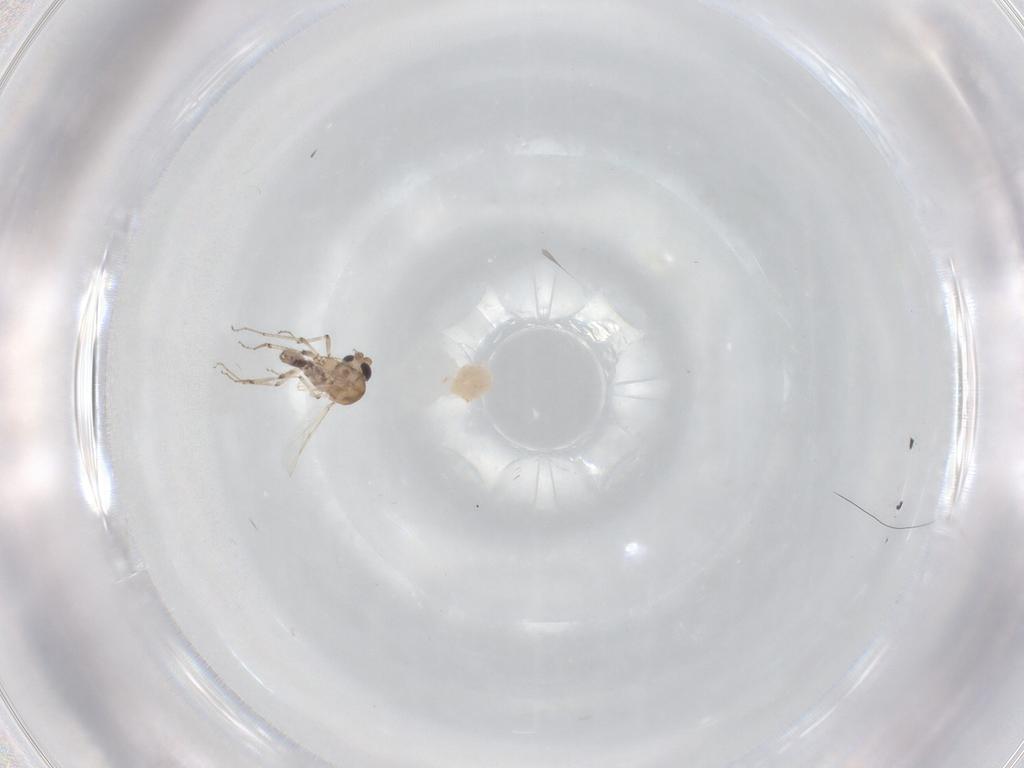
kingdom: Animalia
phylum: Arthropoda
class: Insecta
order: Diptera
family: Ceratopogonidae
